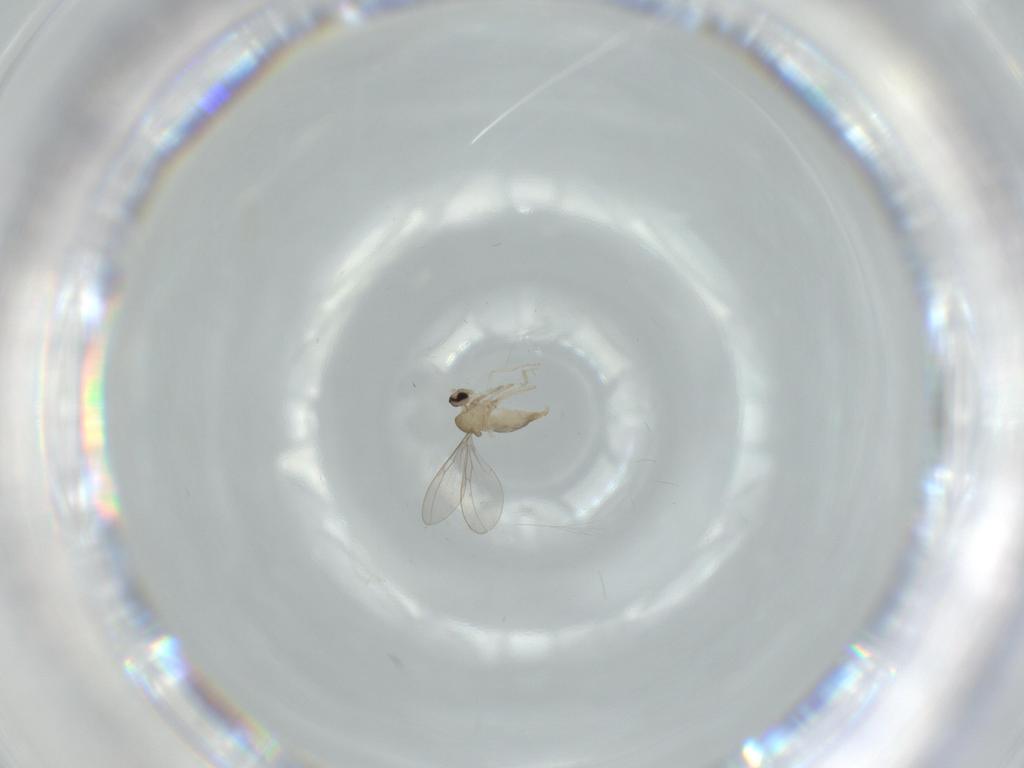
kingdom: Animalia
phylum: Arthropoda
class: Insecta
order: Diptera
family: Cecidomyiidae
